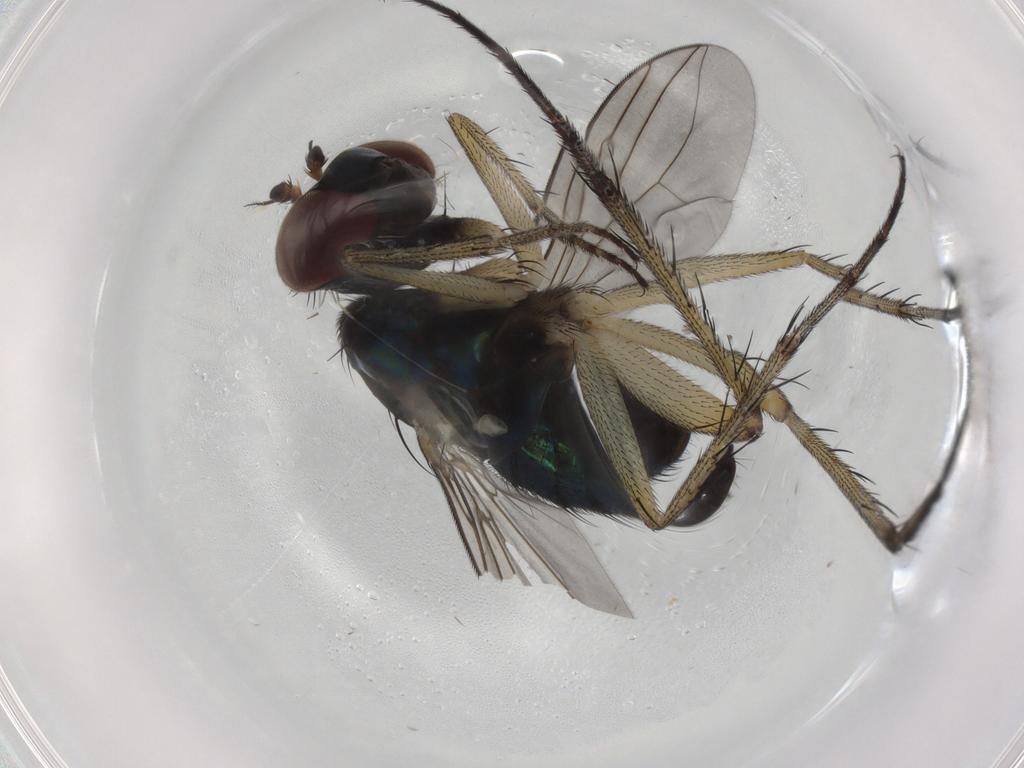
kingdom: Animalia
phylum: Arthropoda
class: Insecta
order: Diptera
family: Dolichopodidae
